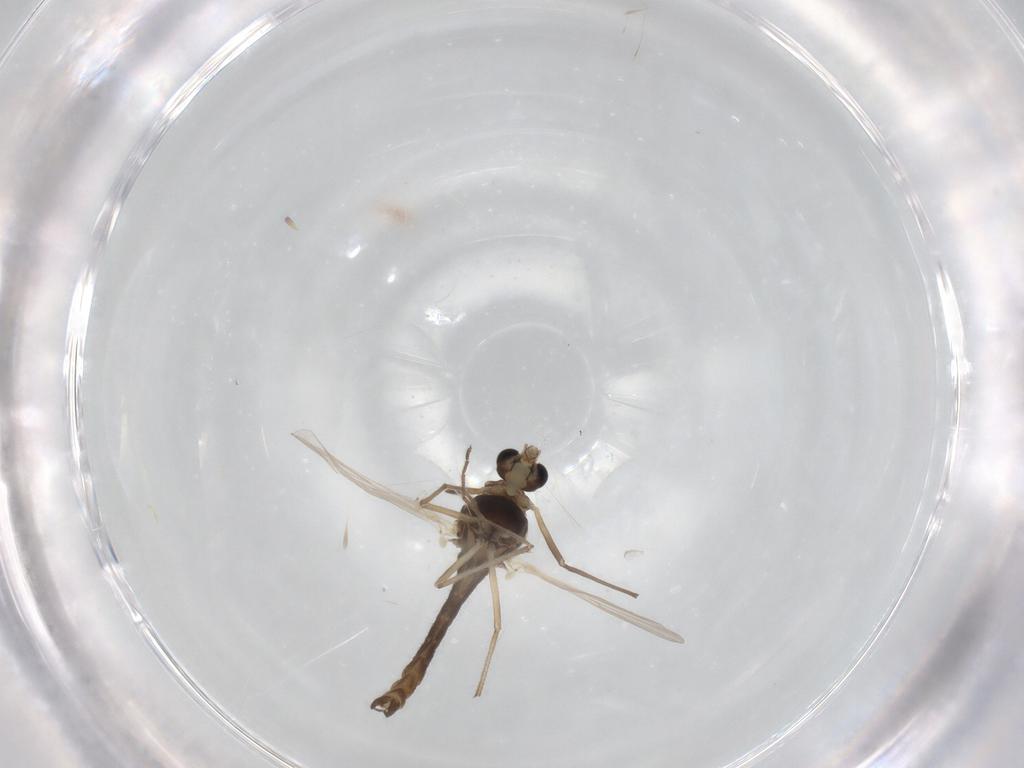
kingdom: Animalia
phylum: Arthropoda
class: Insecta
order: Diptera
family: Chironomidae
